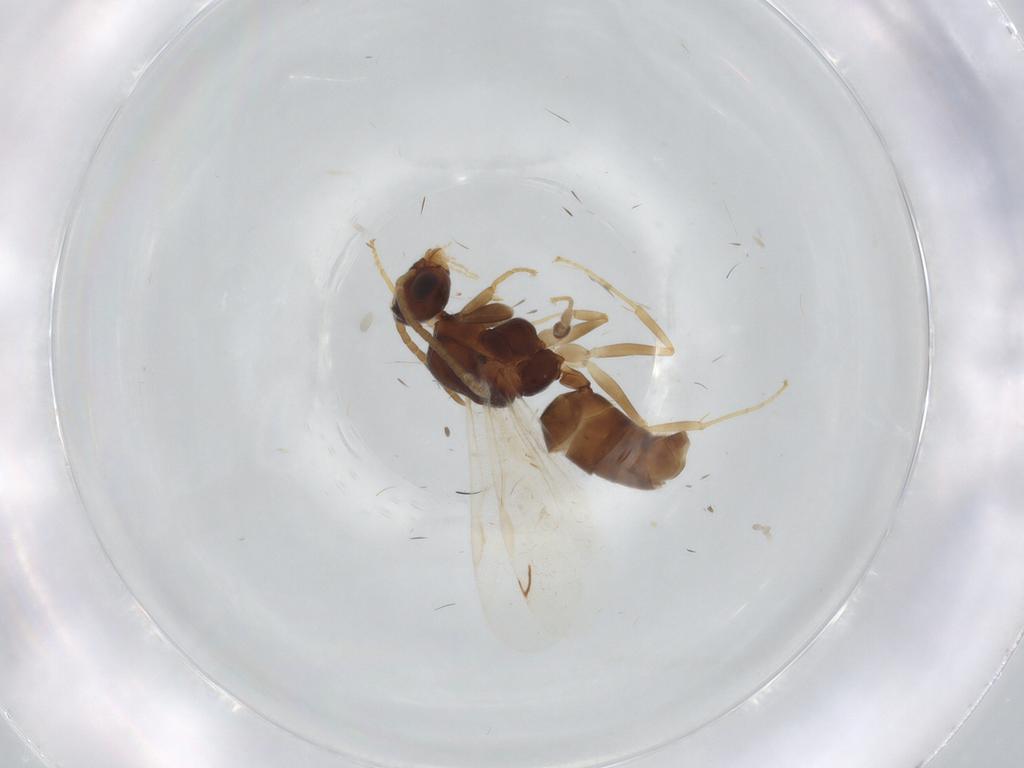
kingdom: Animalia
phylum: Arthropoda
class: Insecta
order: Hymenoptera
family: Formicidae
